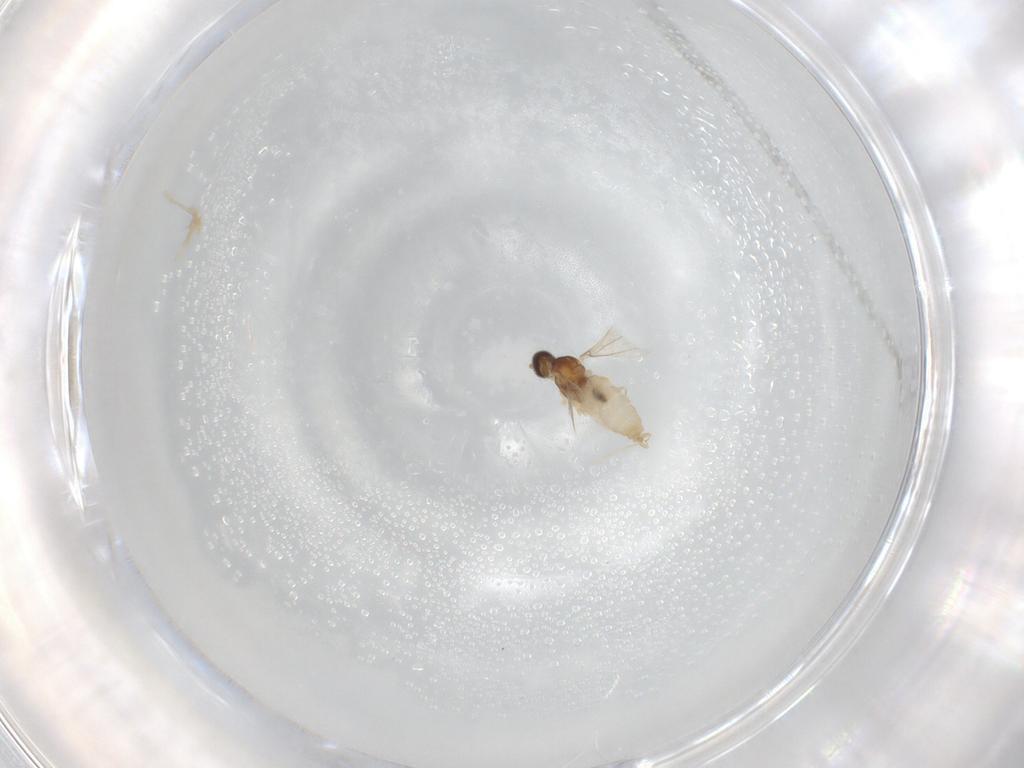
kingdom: Animalia
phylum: Arthropoda
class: Insecta
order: Diptera
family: Cecidomyiidae
